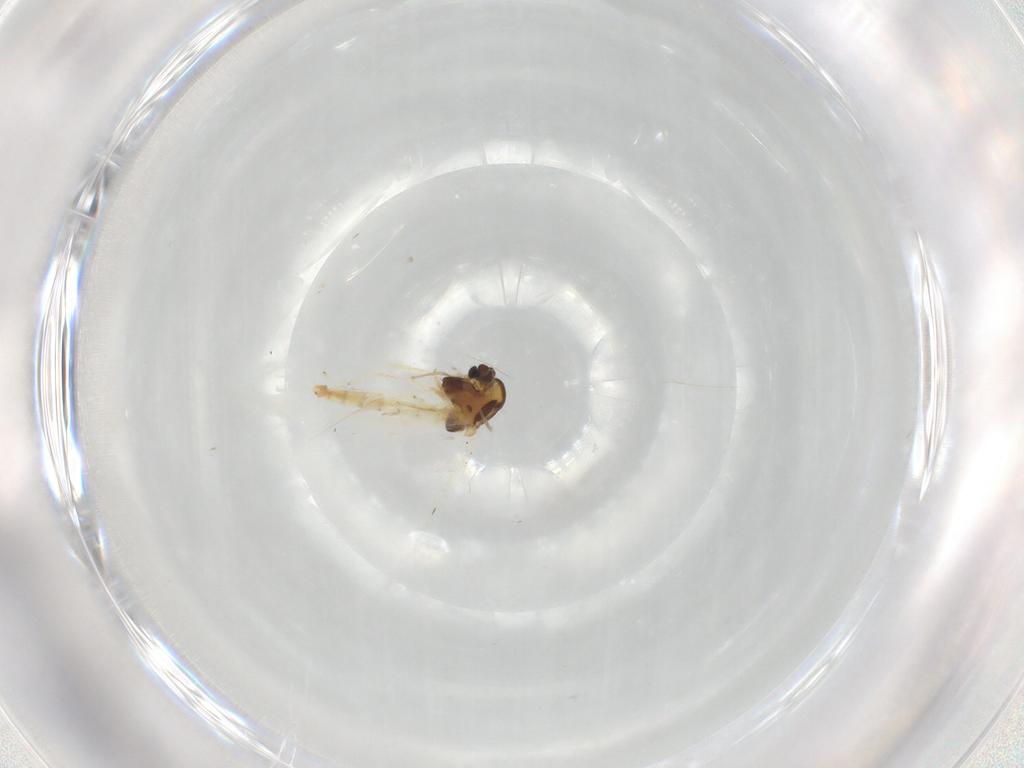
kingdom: Animalia
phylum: Arthropoda
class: Insecta
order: Diptera
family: Chironomidae
